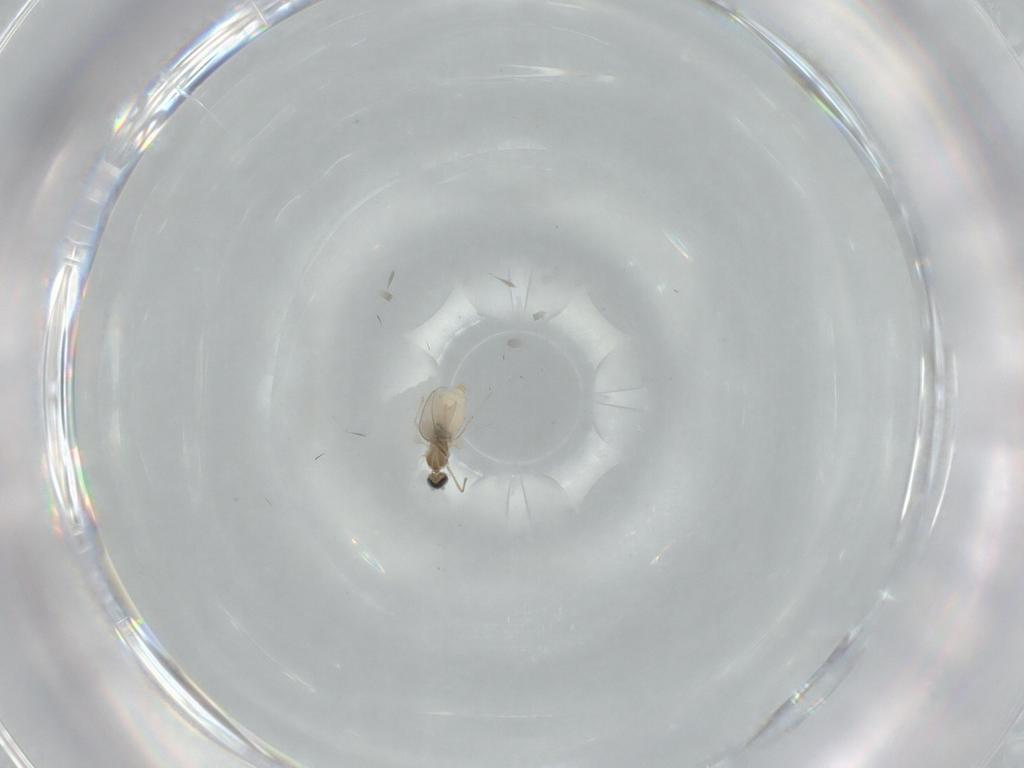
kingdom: Animalia
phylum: Arthropoda
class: Insecta
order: Diptera
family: Cecidomyiidae
